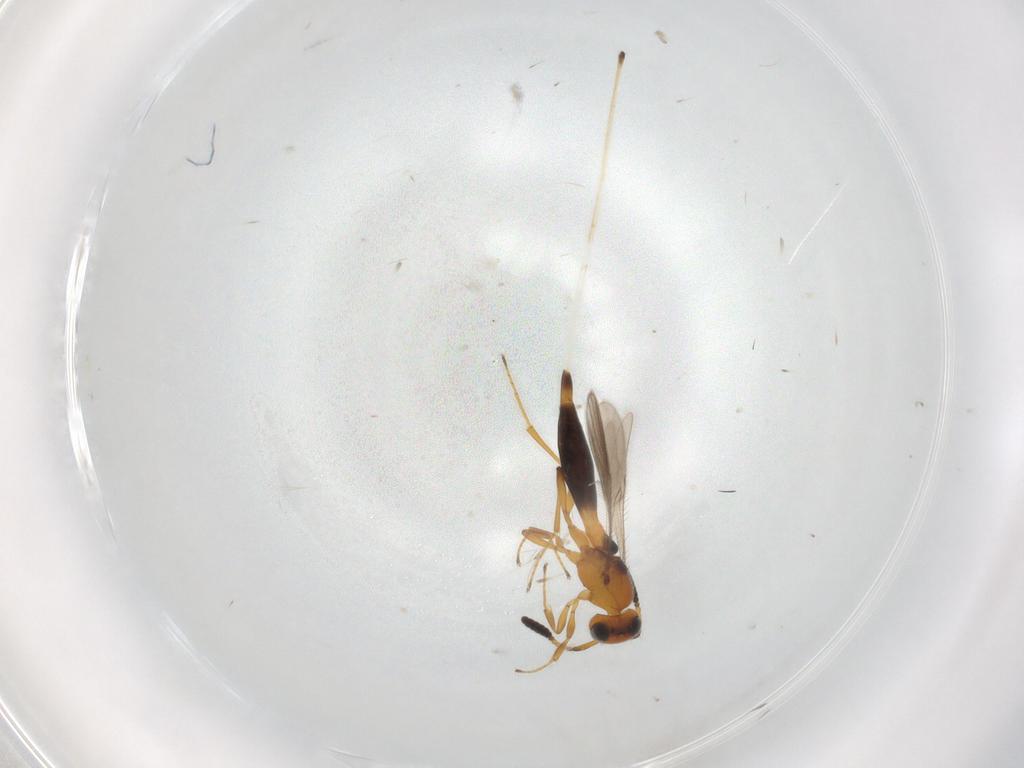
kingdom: Animalia
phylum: Arthropoda
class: Insecta
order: Hymenoptera
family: Scelionidae
